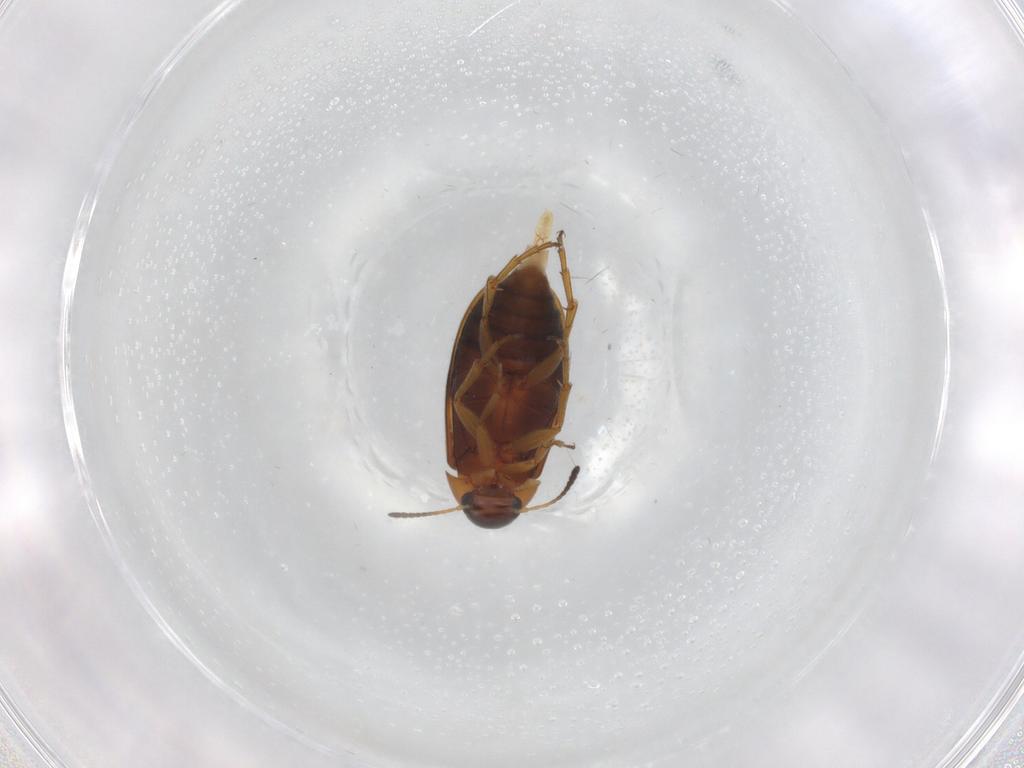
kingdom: Animalia
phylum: Arthropoda
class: Insecta
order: Coleoptera
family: Scraptiidae
